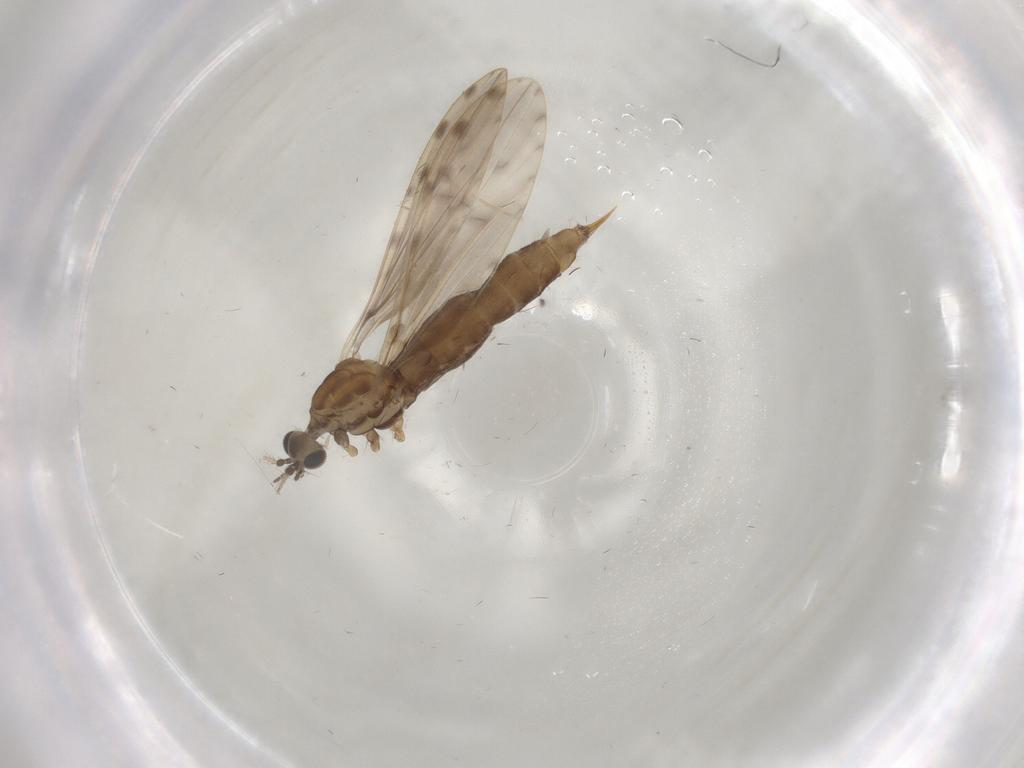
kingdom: Animalia
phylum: Arthropoda
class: Insecta
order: Diptera
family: Limoniidae
